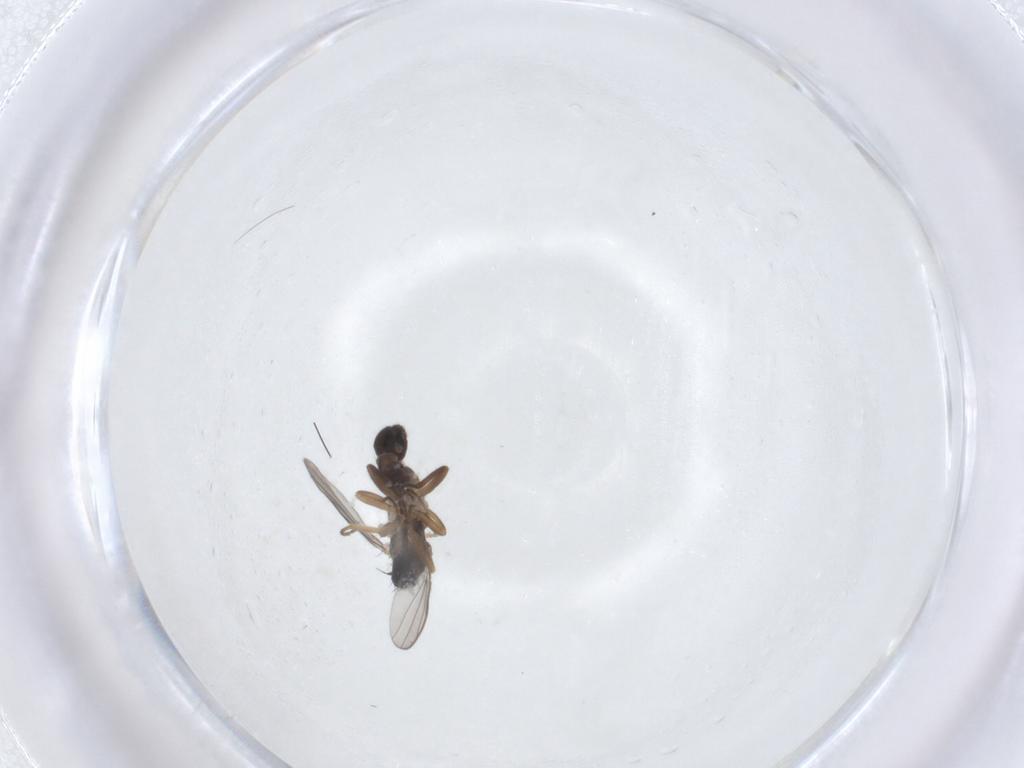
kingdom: Animalia
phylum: Arthropoda
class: Insecta
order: Diptera
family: Hybotidae
